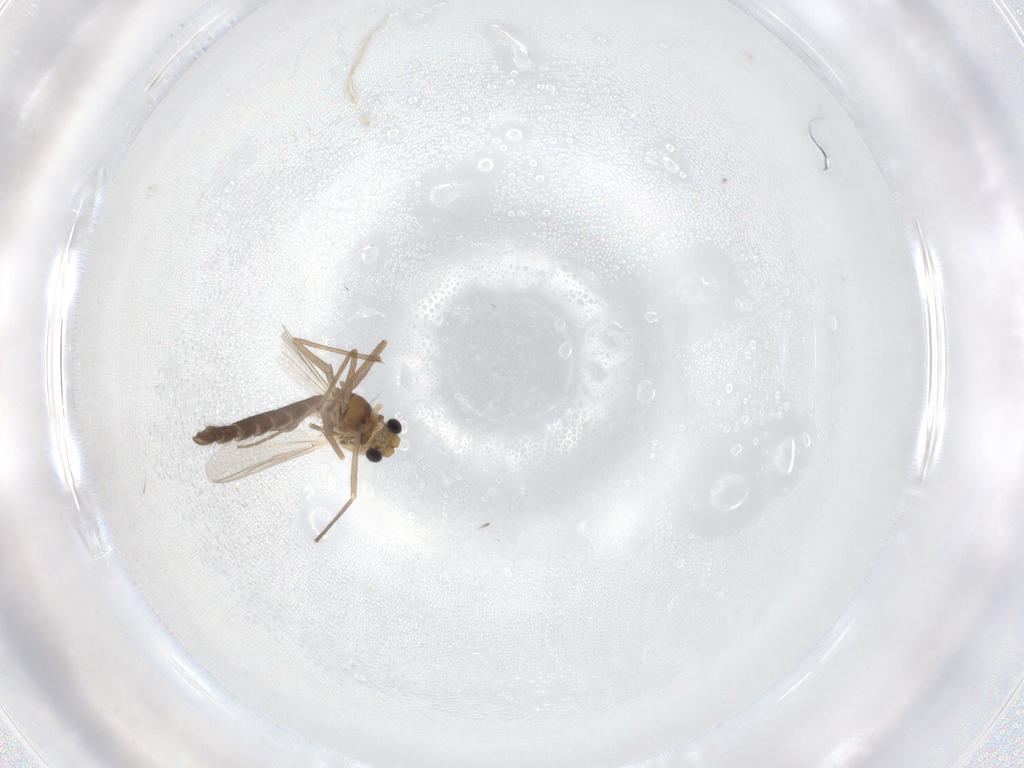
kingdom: Animalia
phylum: Arthropoda
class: Insecta
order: Diptera
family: Chironomidae
